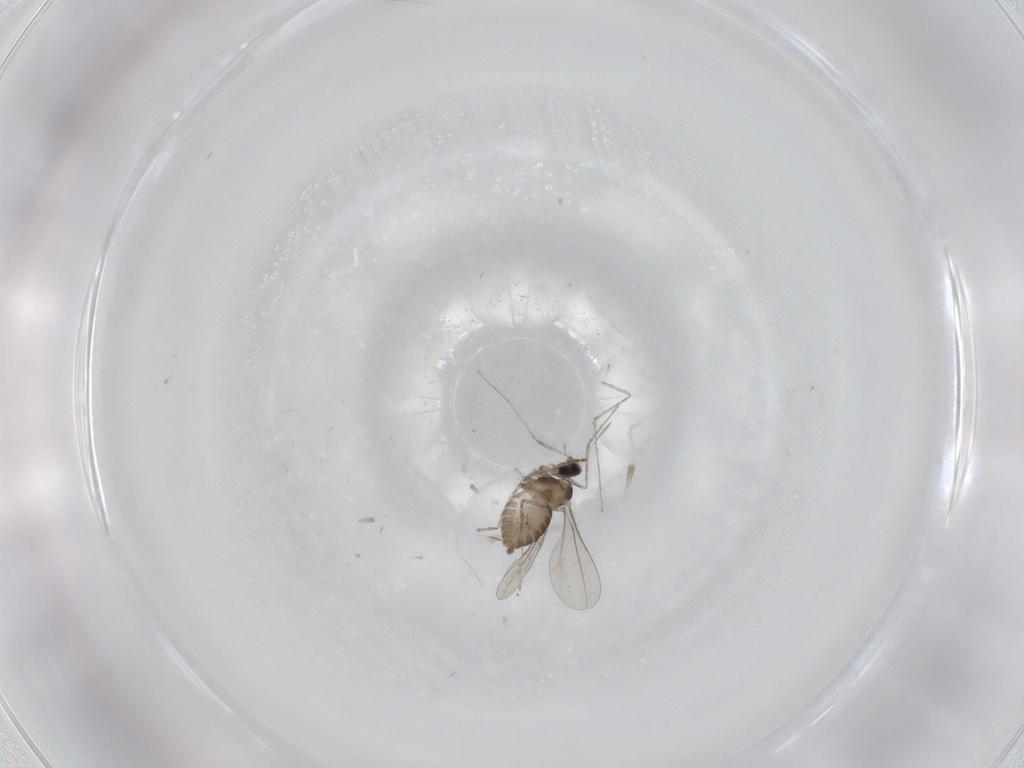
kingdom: Animalia
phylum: Arthropoda
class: Insecta
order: Diptera
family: Cecidomyiidae
